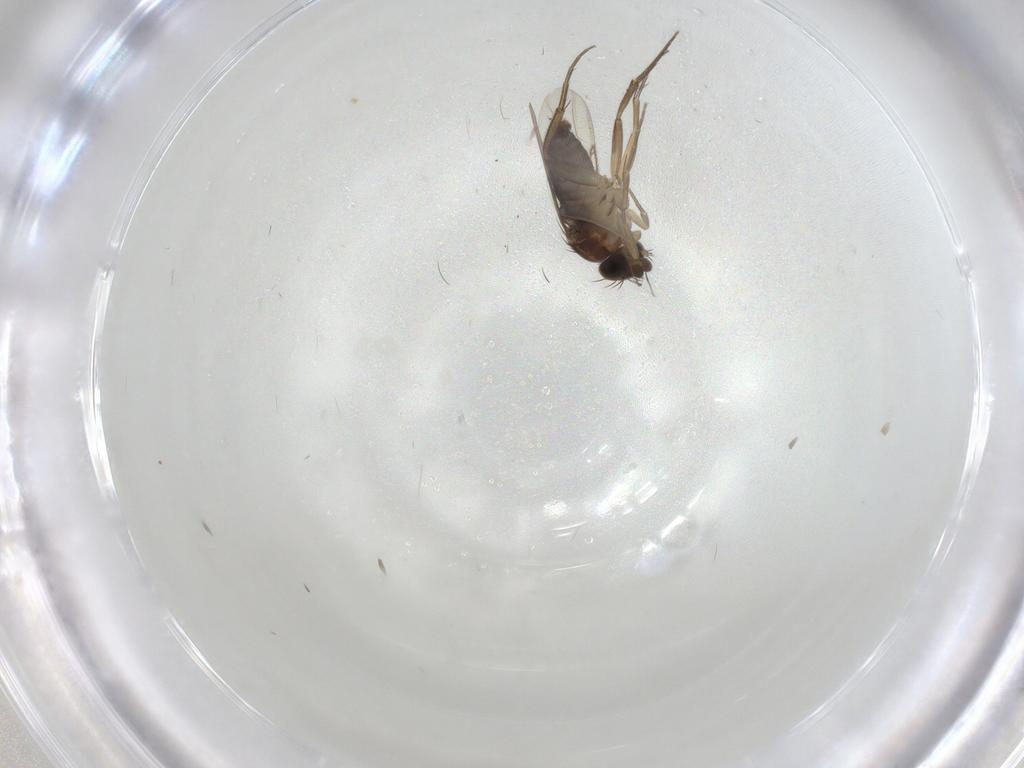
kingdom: Animalia
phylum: Arthropoda
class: Insecta
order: Diptera
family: Phoridae
